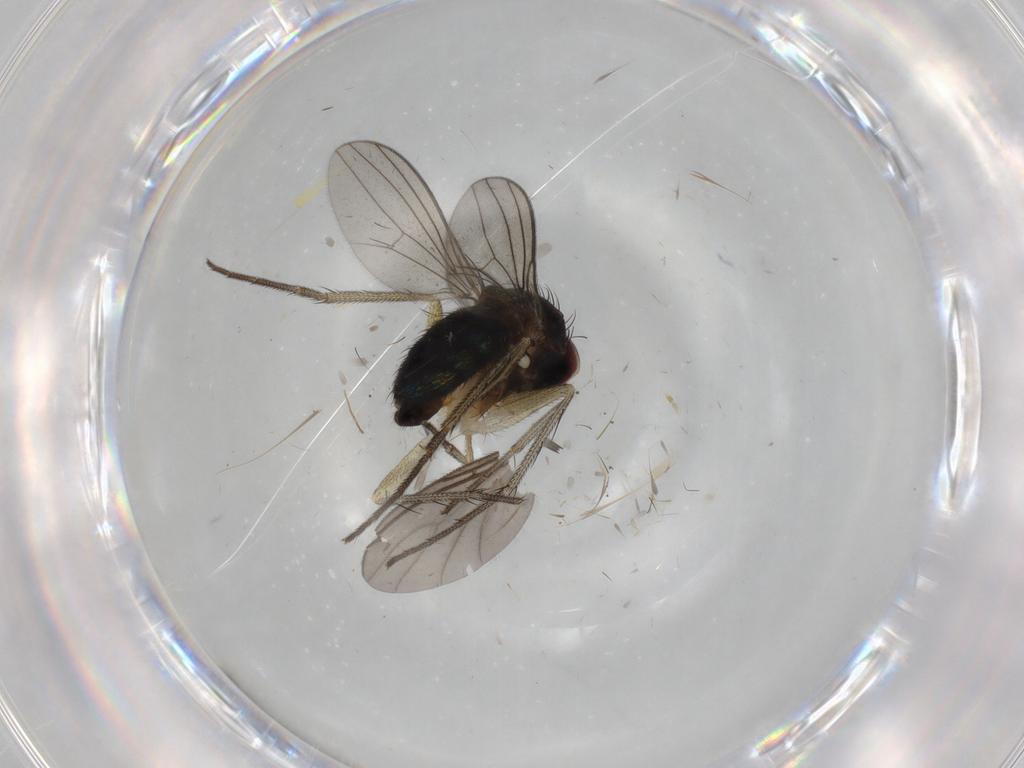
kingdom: Animalia
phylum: Arthropoda
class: Insecta
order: Diptera
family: Dolichopodidae
